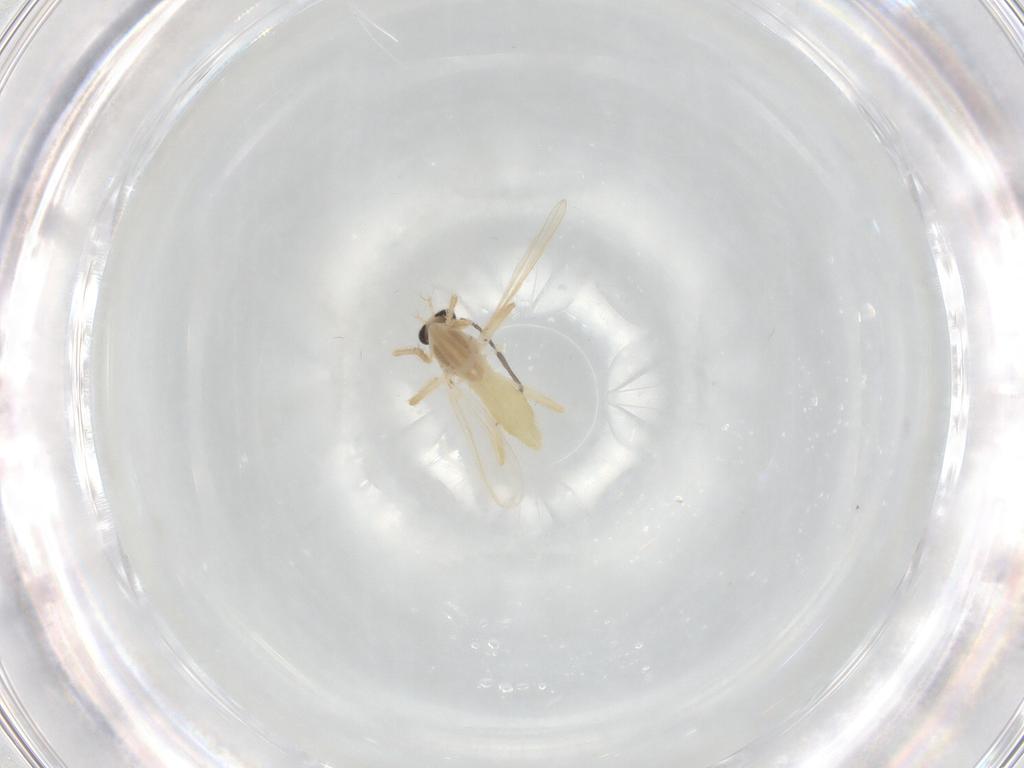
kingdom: Animalia
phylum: Arthropoda
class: Insecta
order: Diptera
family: Sciaridae
